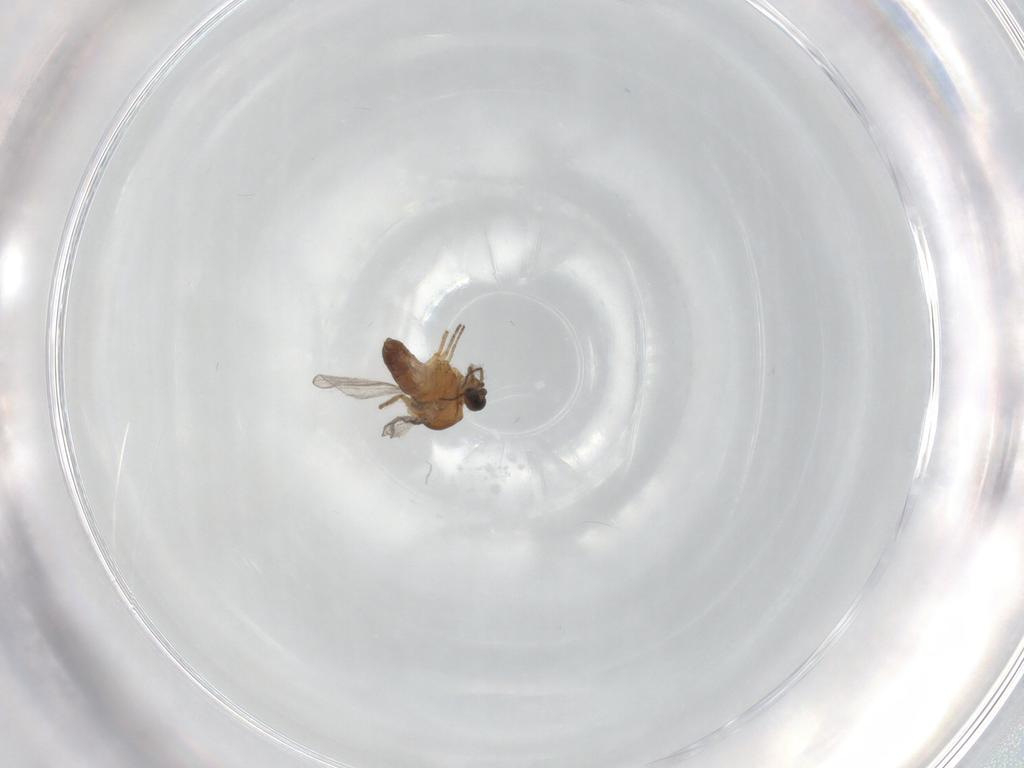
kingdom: Animalia
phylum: Arthropoda
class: Insecta
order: Diptera
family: Ceratopogonidae
